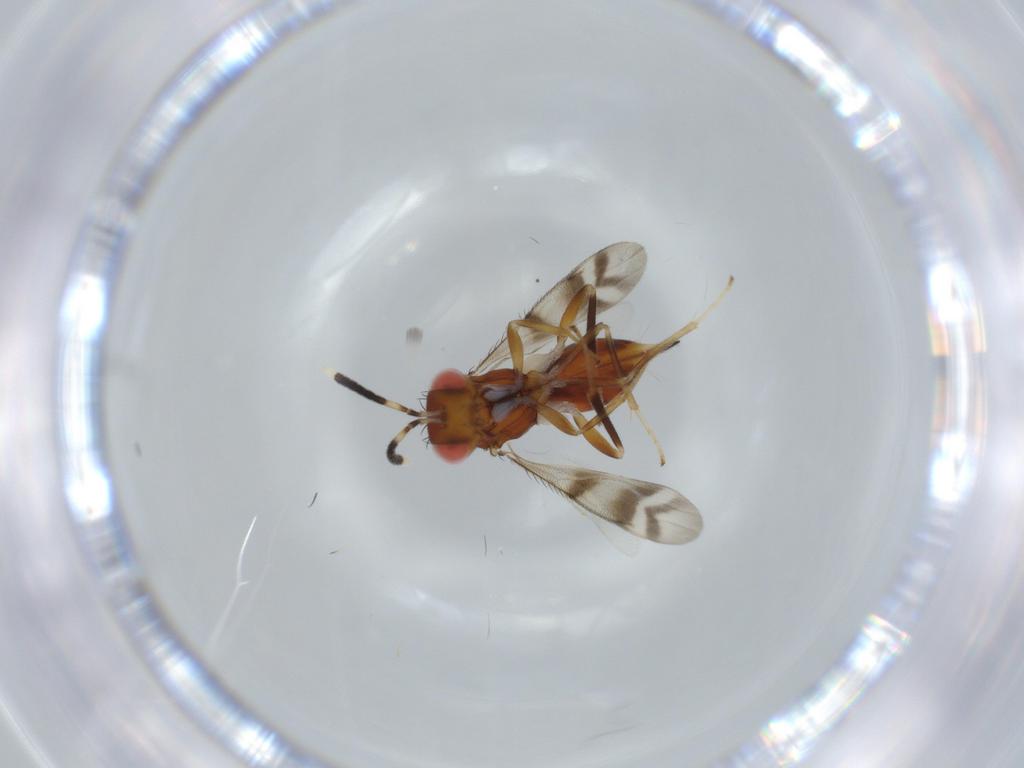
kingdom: Animalia
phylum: Arthropoda
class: Insecta
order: Hymenoptera
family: Diparidae
